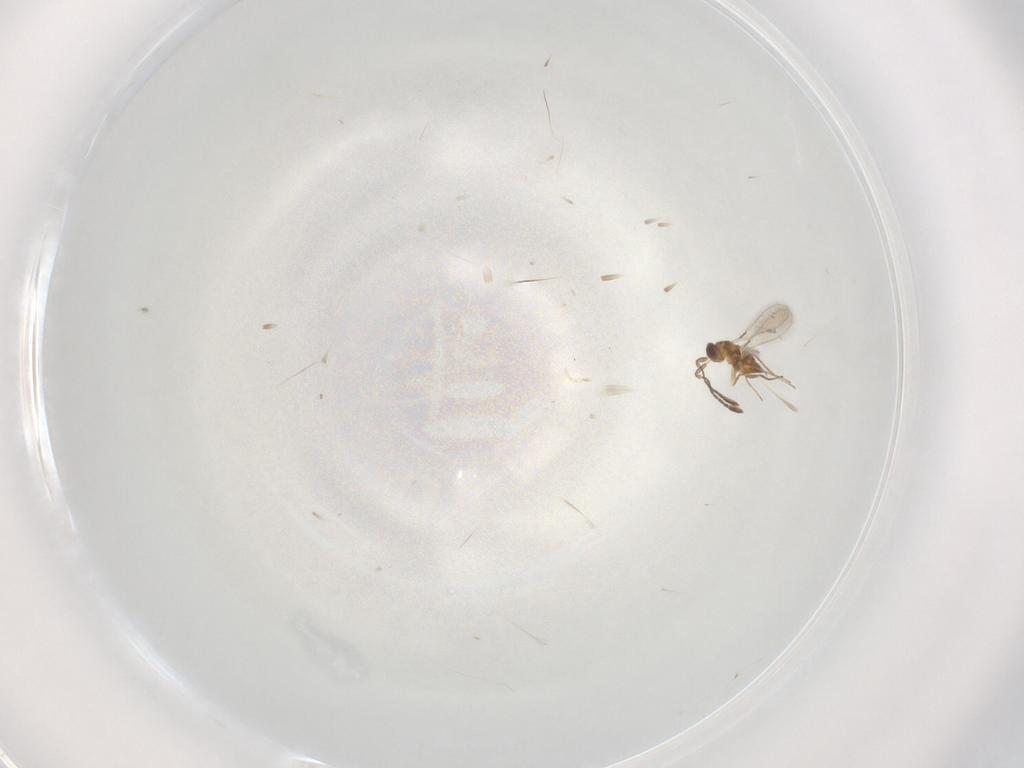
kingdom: Animalia
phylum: Arthropoda
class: Insecta
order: Hymenoptera
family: Mymaridae
